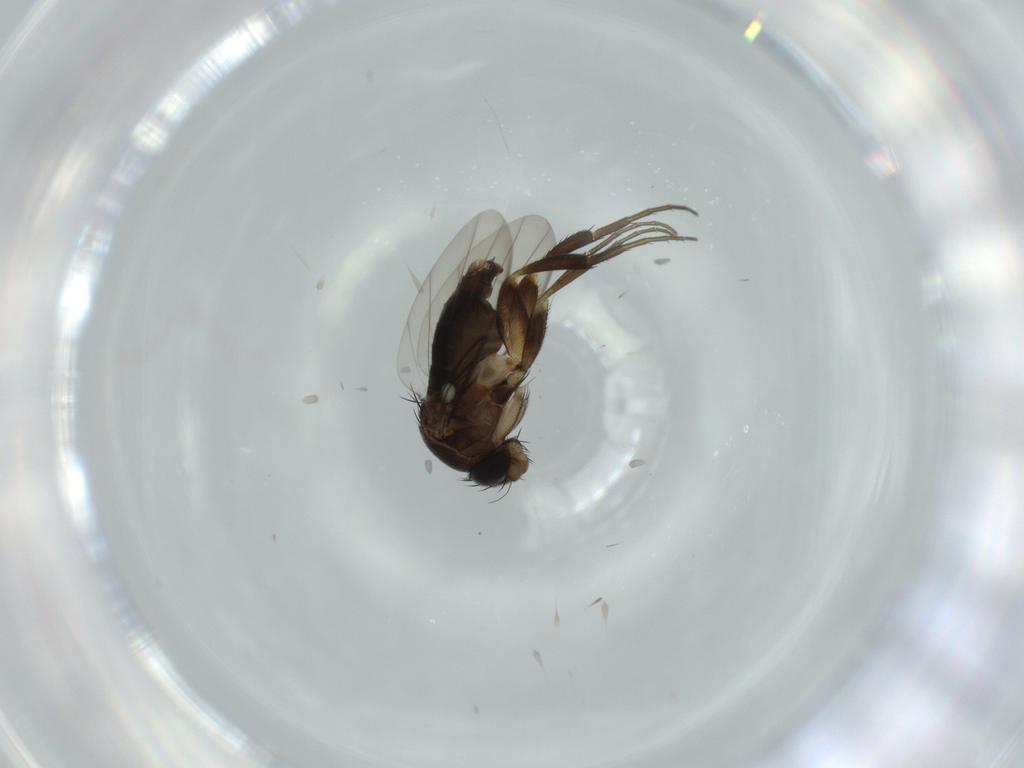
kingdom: Animalia
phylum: Arthropoda
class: Insecta
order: Diptera
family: Phoridae
